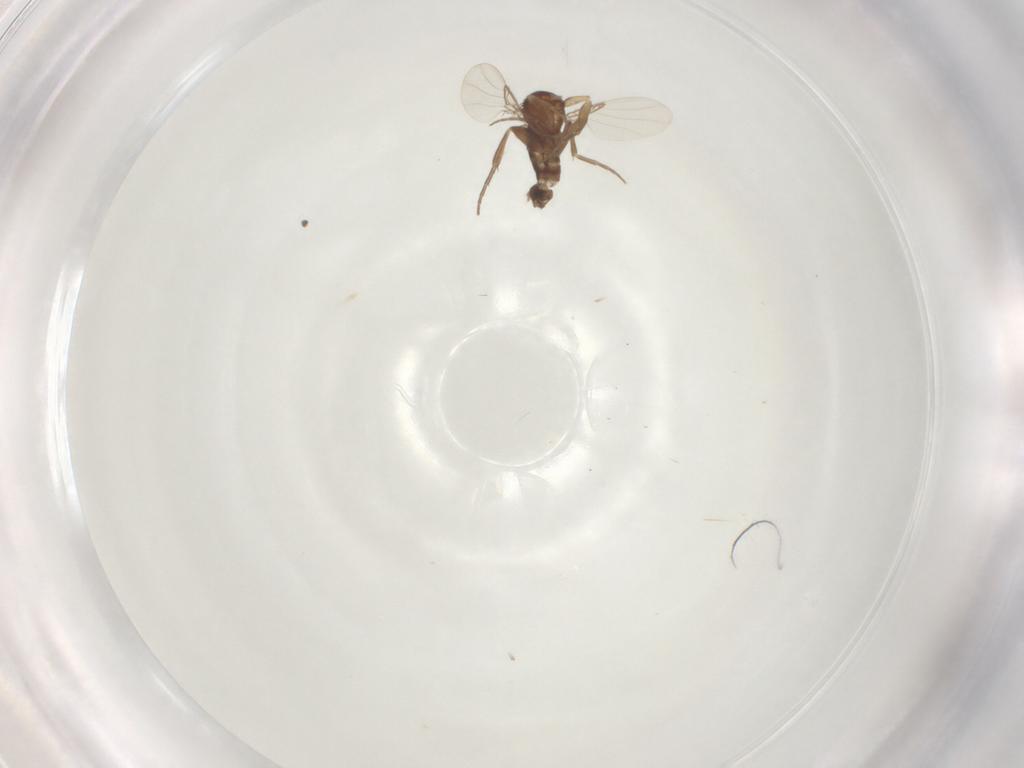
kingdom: Animalia
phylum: Arthropoda
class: Insecta
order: Diptera
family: Phoridae
